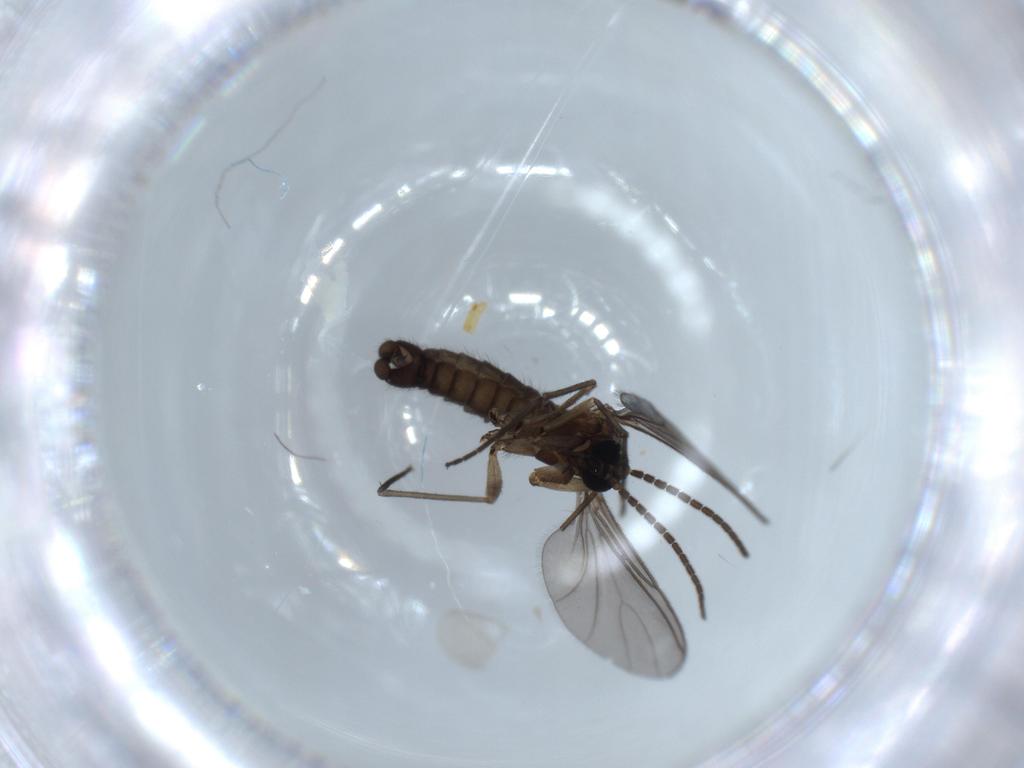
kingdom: Animalia
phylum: Arthropoda
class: Insecta
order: Diptera
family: Sciaridae
